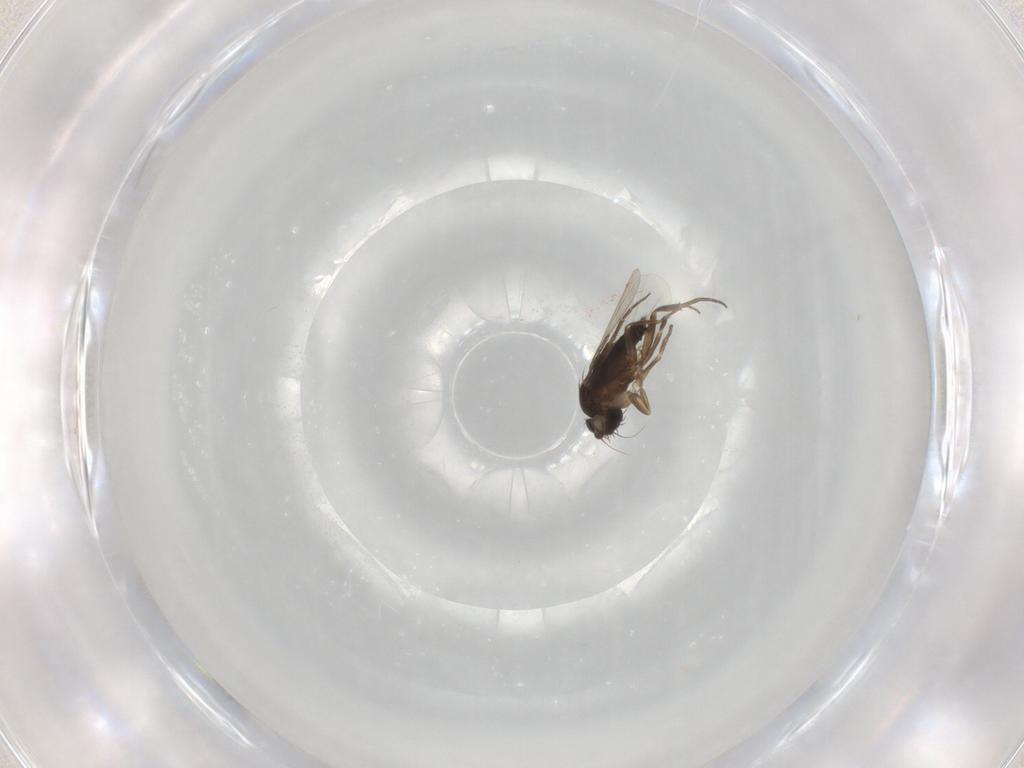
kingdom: Animalia
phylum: Arthropoda
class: Insecta
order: Diptera
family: Phoridae
